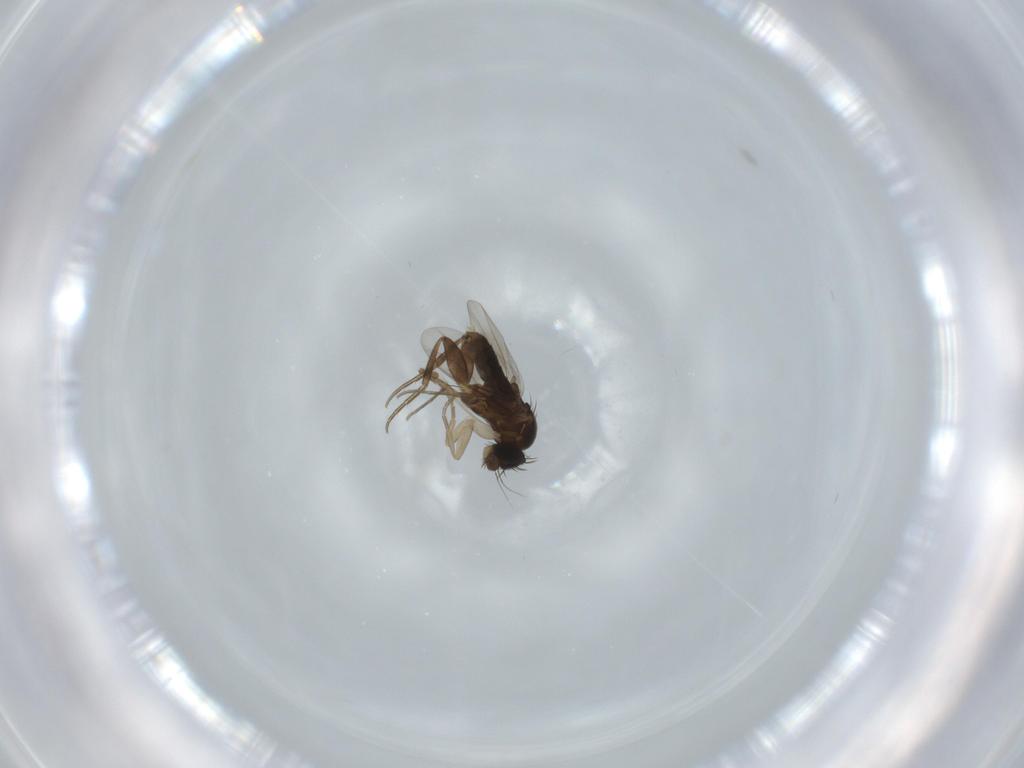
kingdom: Animalia
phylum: Arthropoda
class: Insecta
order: Diptera
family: Phoridae
